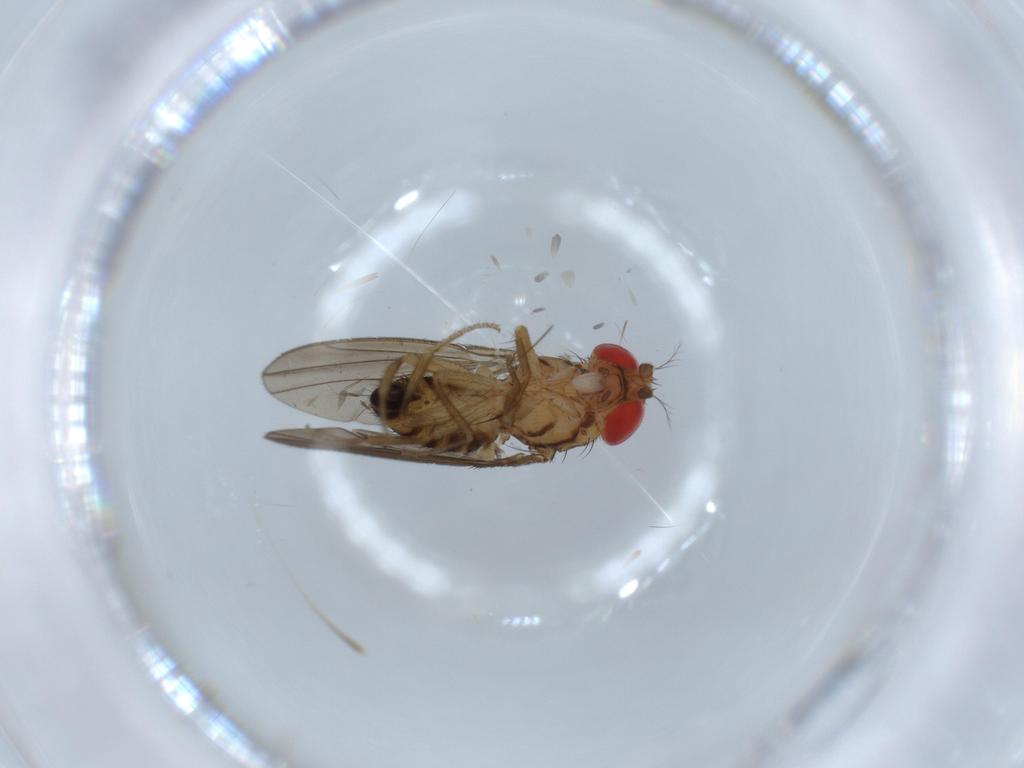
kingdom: Animalia
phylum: Arthropoda
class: Insecta
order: Diptera
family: Drosophilidae
